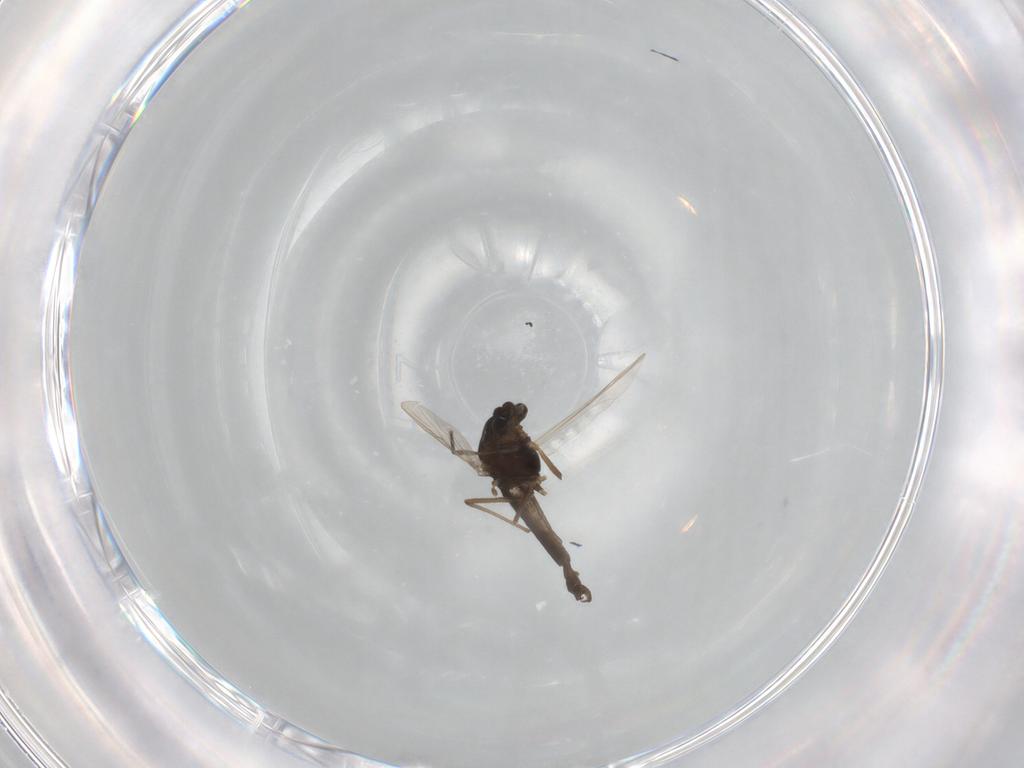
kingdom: Animalia
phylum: Arthropoda
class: Insecta
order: Diptera
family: Chironomidae
